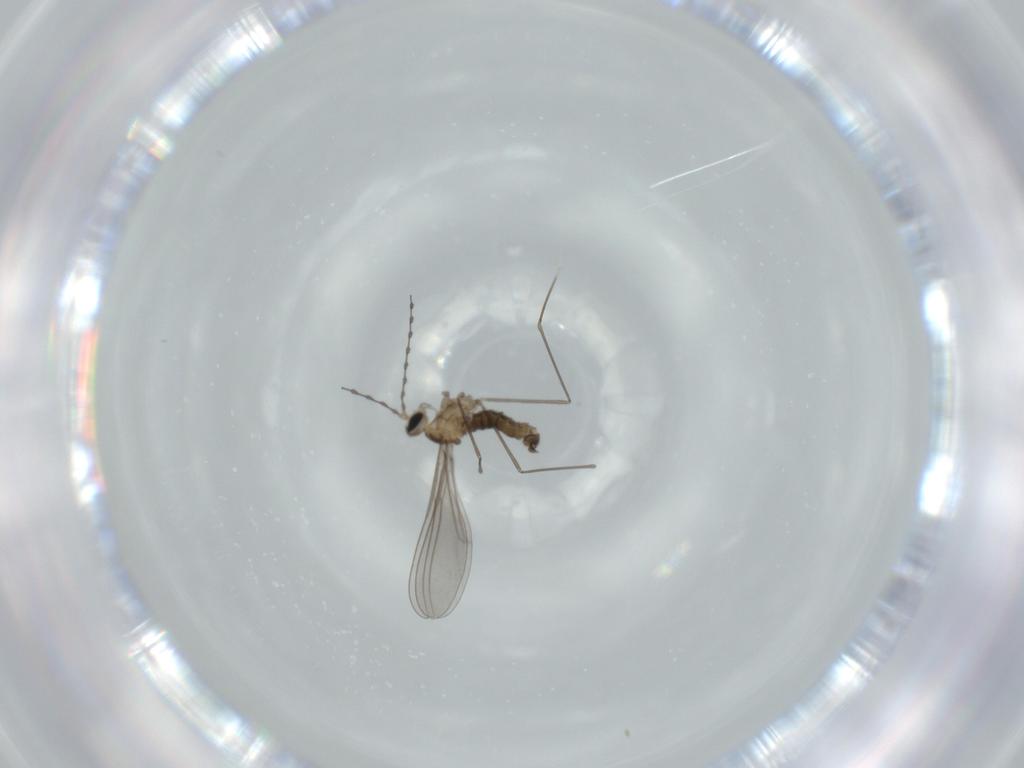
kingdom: Animalia
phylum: Arthropoda
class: Insecta
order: Diptera
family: Cecidomyiidae
